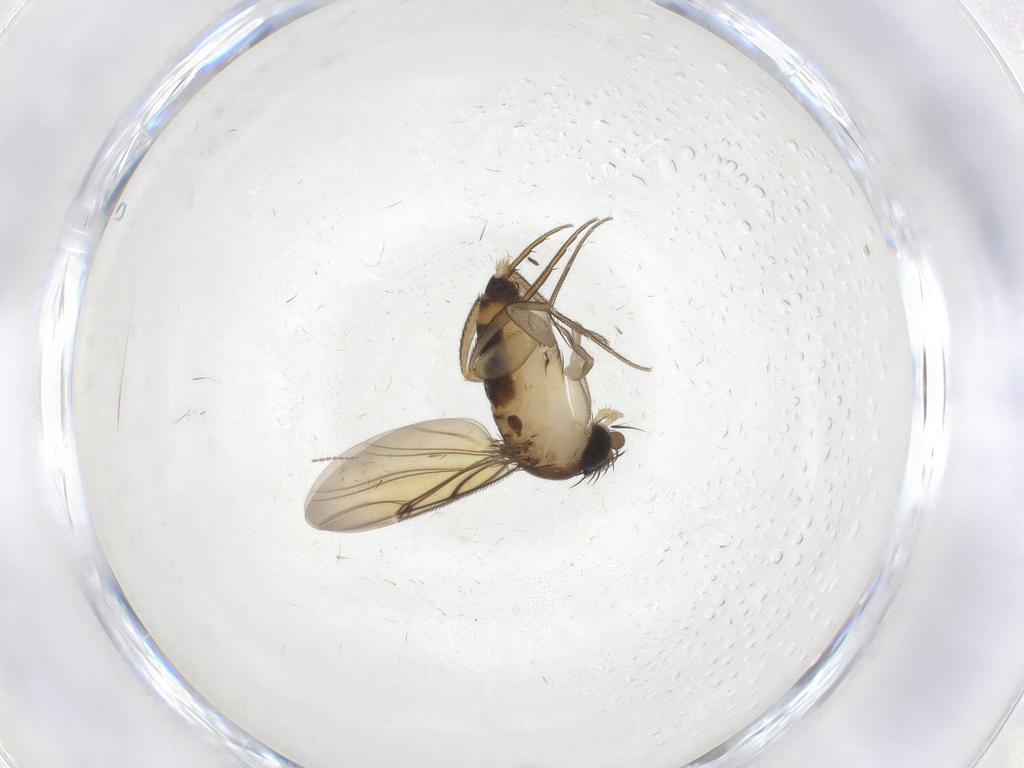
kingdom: Animalia
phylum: Arthropoda
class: Insecta
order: Diptera
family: Limoniidae
